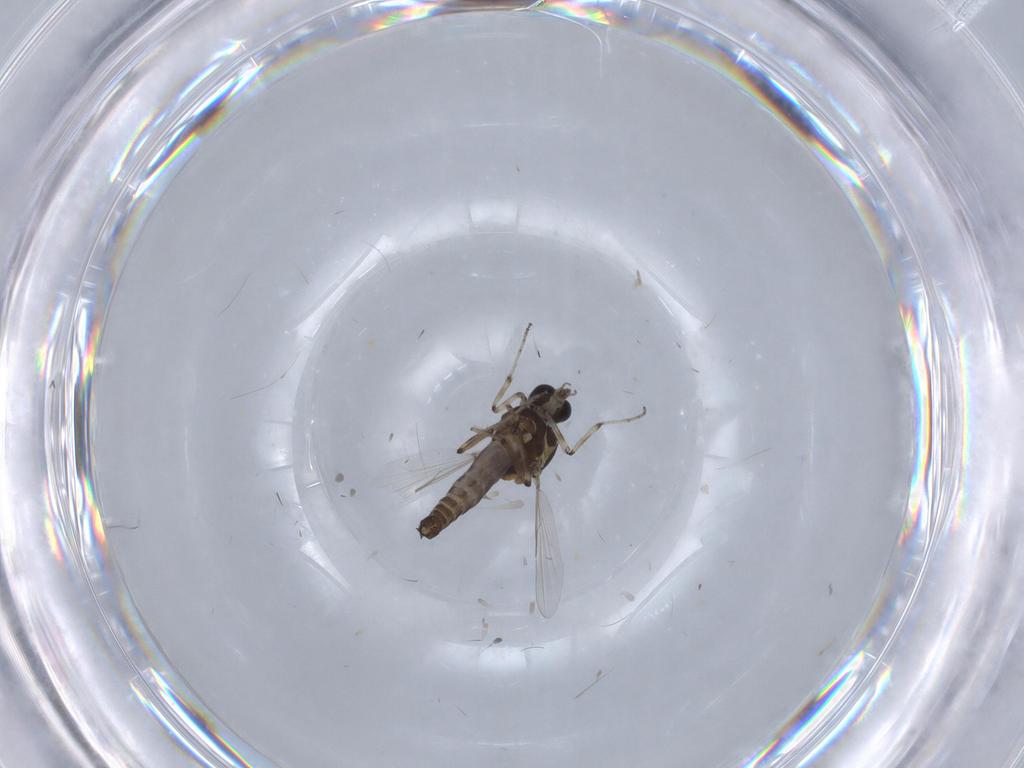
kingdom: Animalia
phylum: Arthropoda
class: Insecta
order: Diptera
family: Ceratopogonidae
